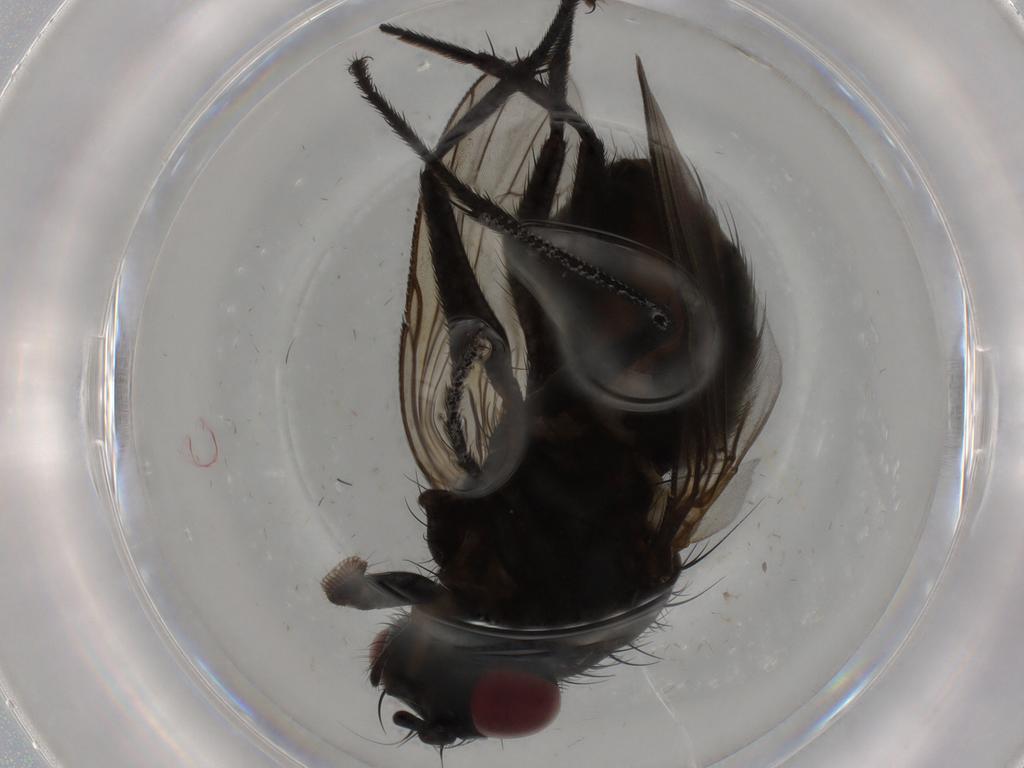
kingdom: Animalia
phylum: Arthropoda
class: Insecta
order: Diptera
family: Muscidae
